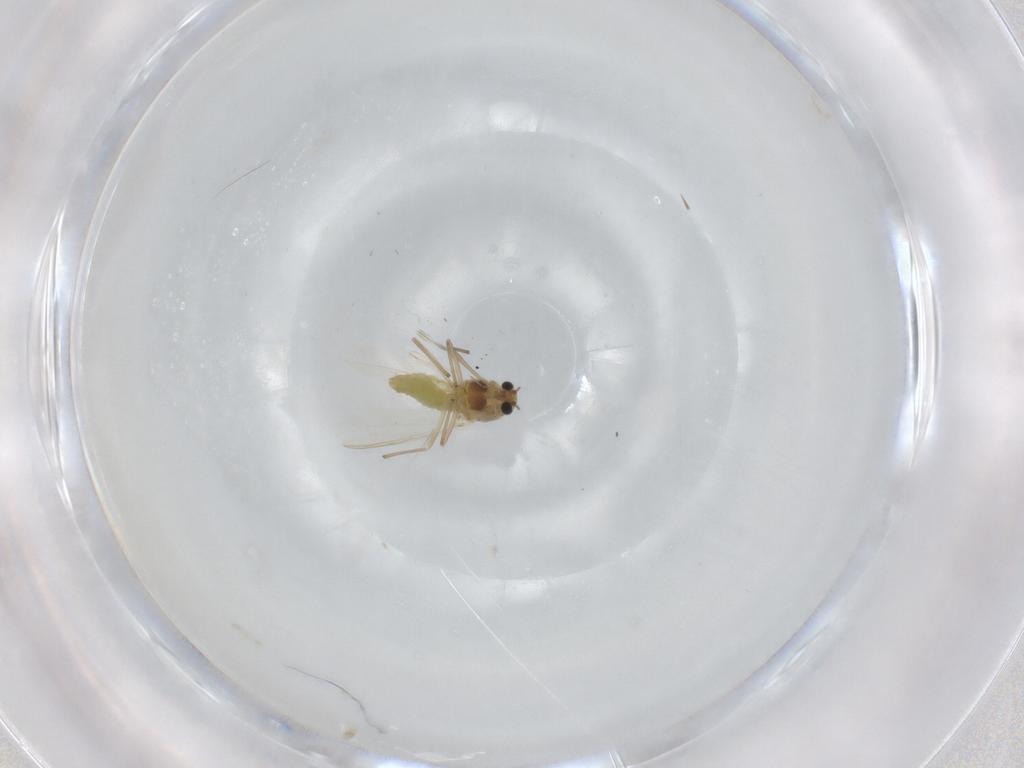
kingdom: Animalia
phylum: Arthropoda
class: Insecta
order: Diptera
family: Chironomidae
